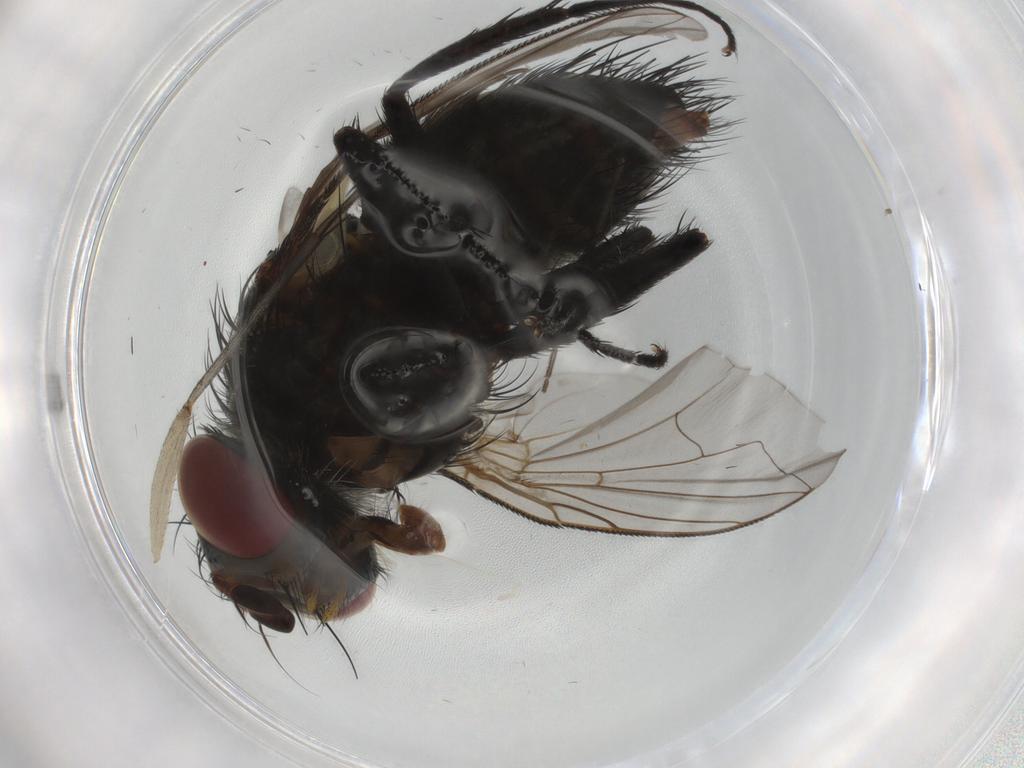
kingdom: Animalia
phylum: Arthropoda
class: Insecta
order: Diptera
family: Tachinidae
